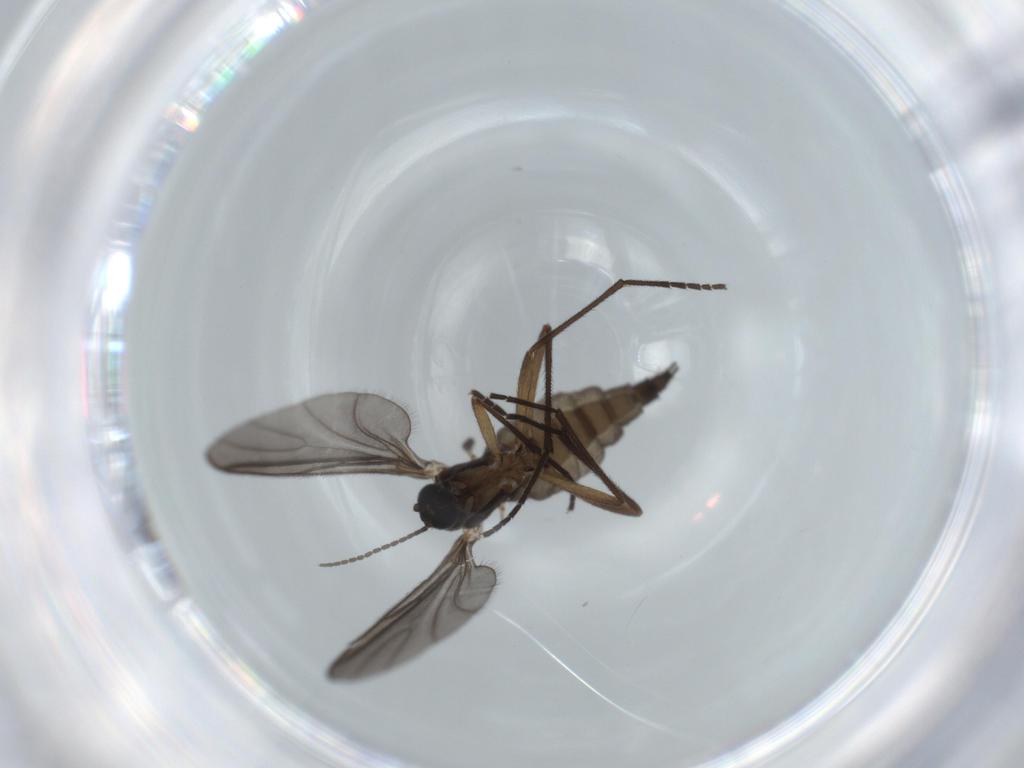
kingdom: Animalia
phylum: Arthropoda
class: Insecta
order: Diptera
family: Sciaridae
